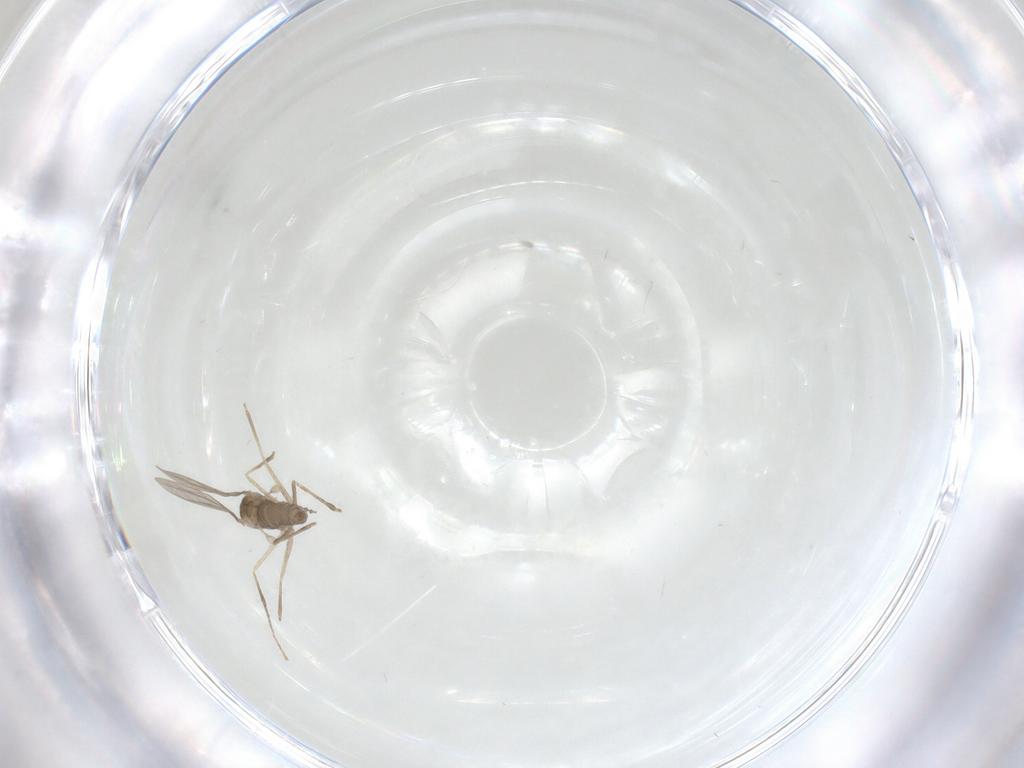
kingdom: Animalia
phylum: Arthropoda
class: Insecta
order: Diptera
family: Cecidomyiidae
